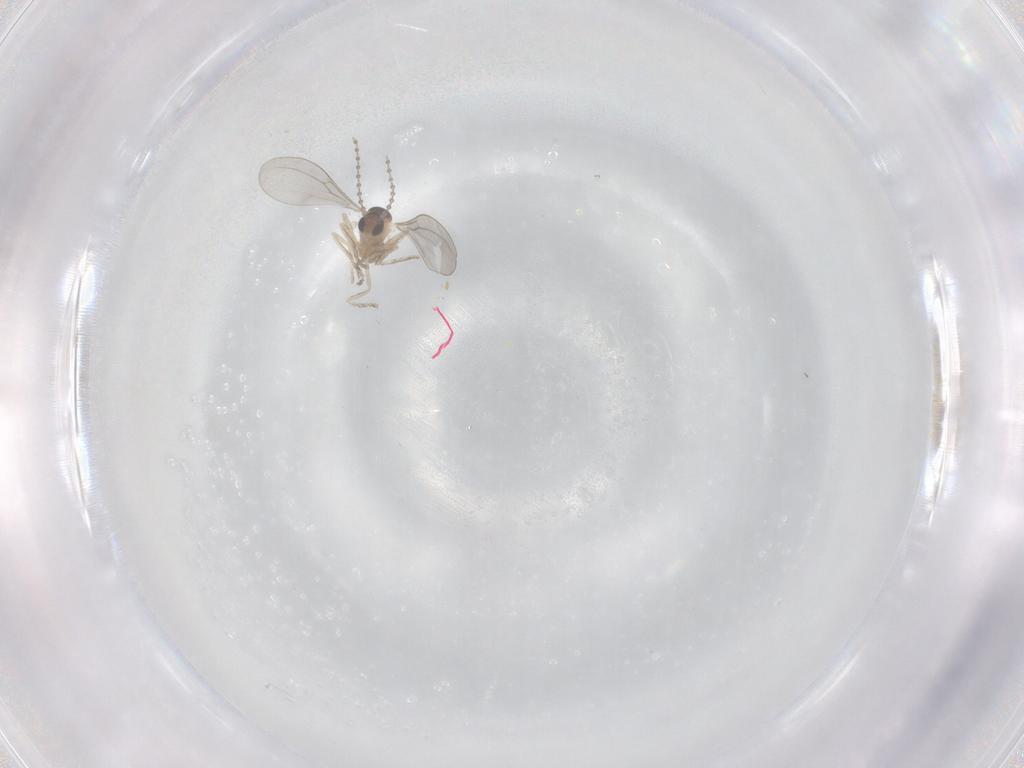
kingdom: Animalia
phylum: Arthropoda
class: Insecta
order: Diptera
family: Cecidomyiidae
